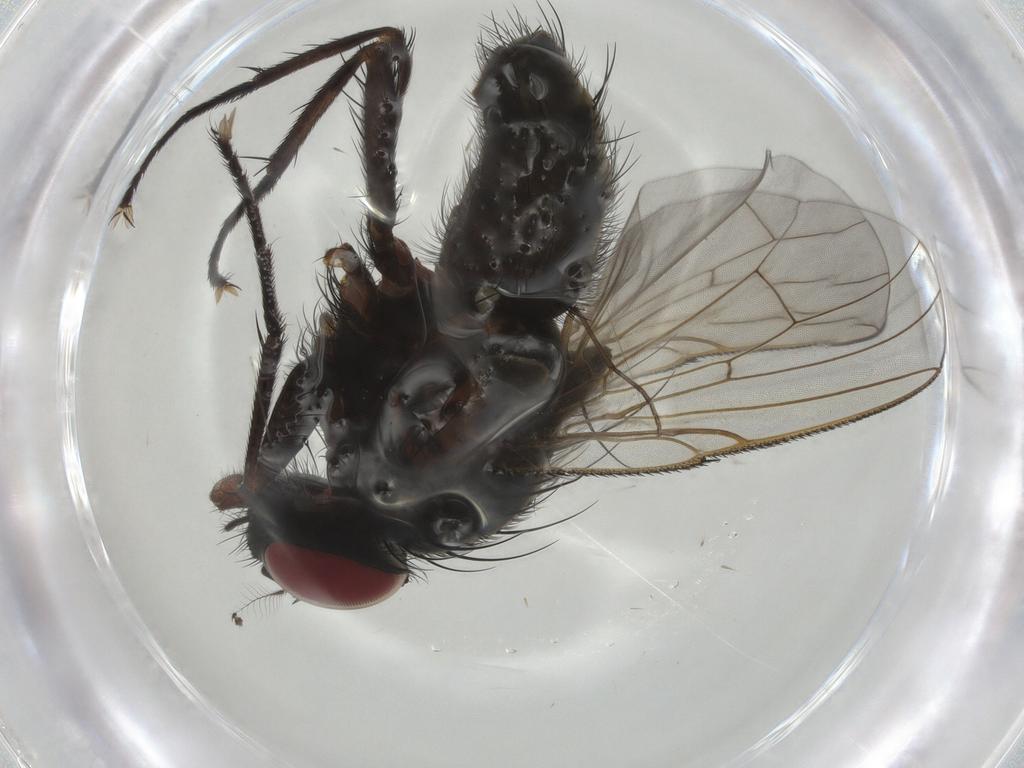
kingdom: Animalia
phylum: Arthropoda
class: Insecta
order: Diptera
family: Muscidae
